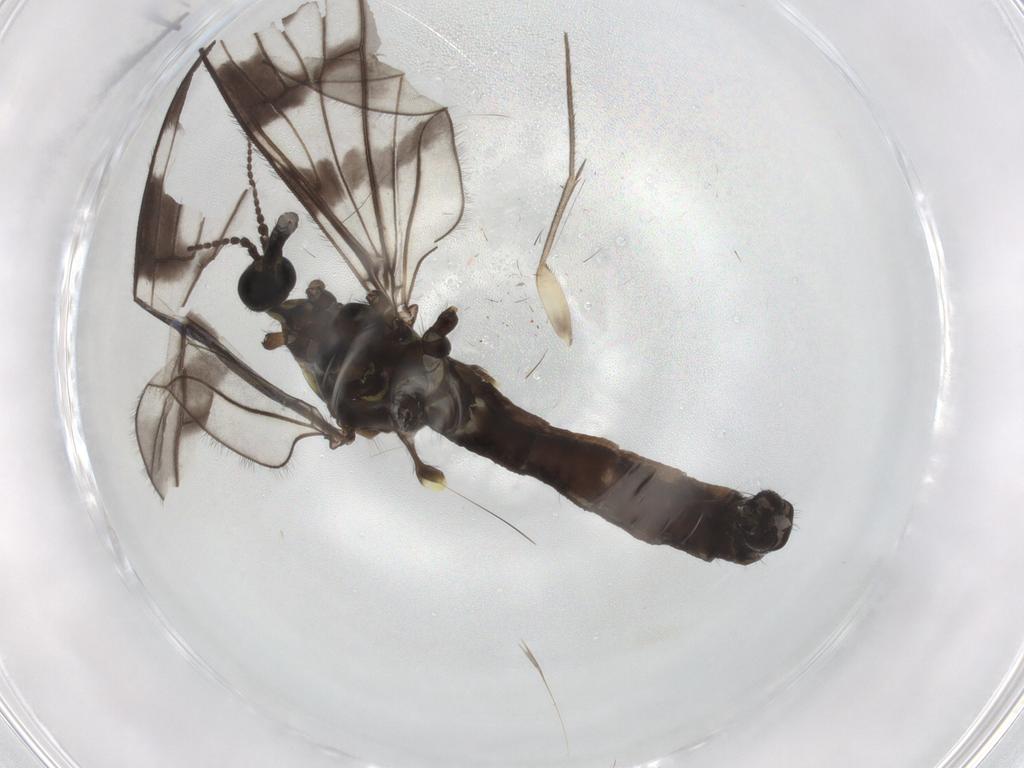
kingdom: Animalia
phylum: Arthropoda
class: Insecta
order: Diptera
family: Limoniidae
